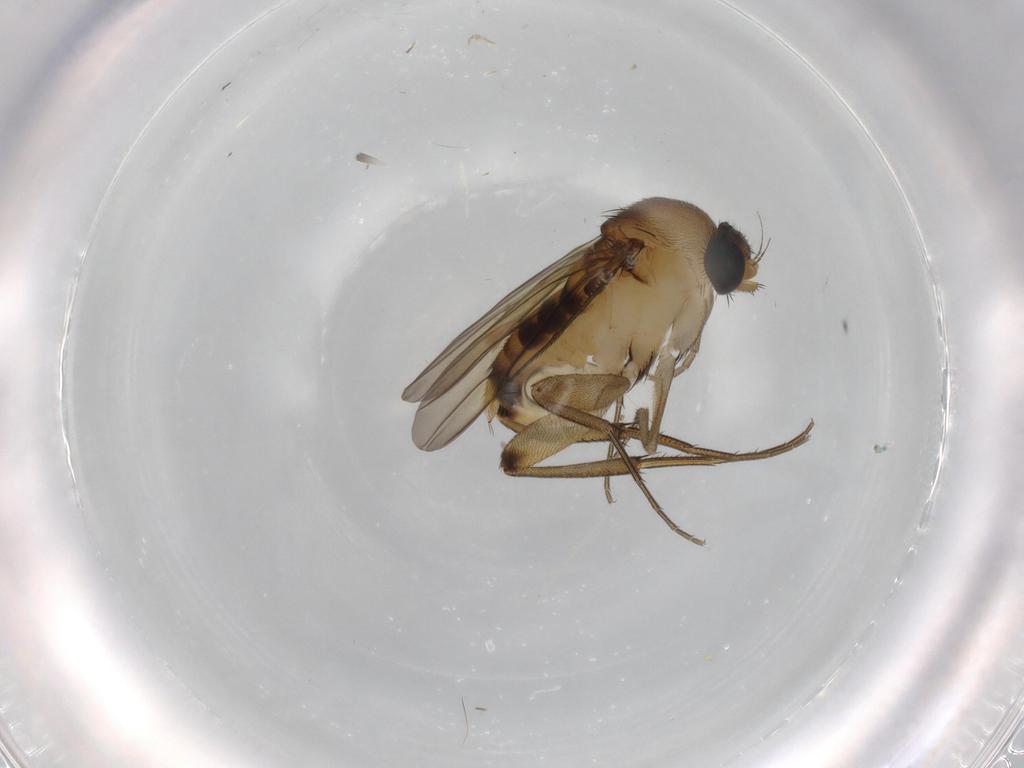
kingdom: Animalia
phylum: Arthropoda
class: Insecta
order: Diptera
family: Phoridae
